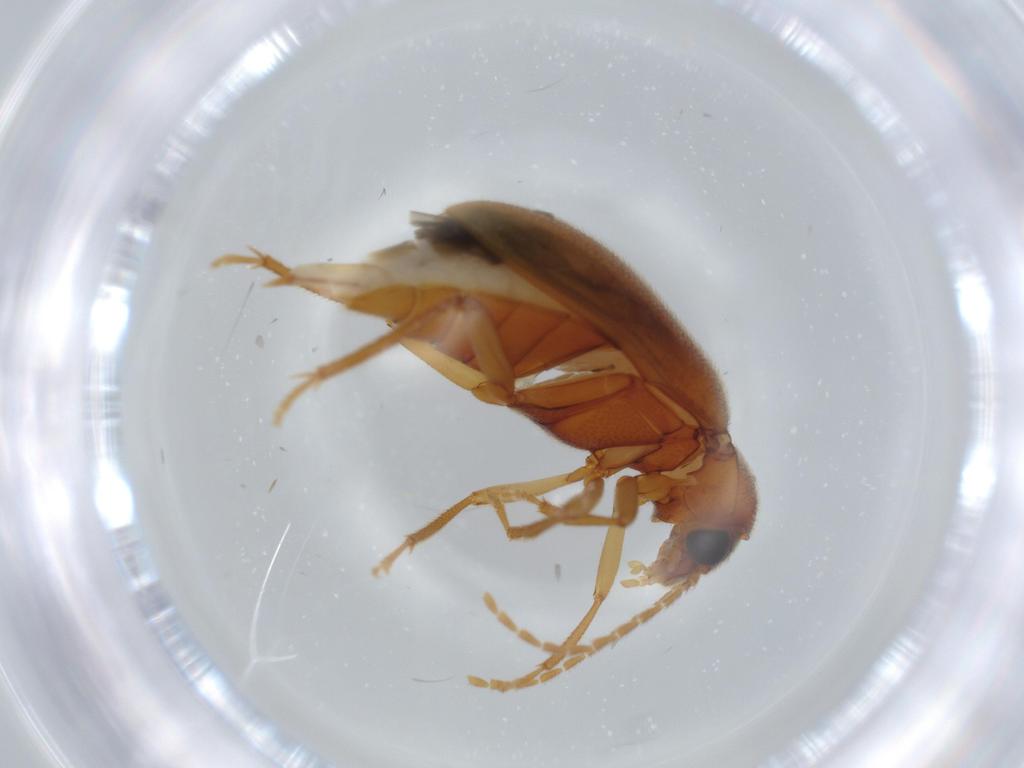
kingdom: Animalia
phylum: Arthropoda
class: Insecta
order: Coleoptera
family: Ptilodactylidae
